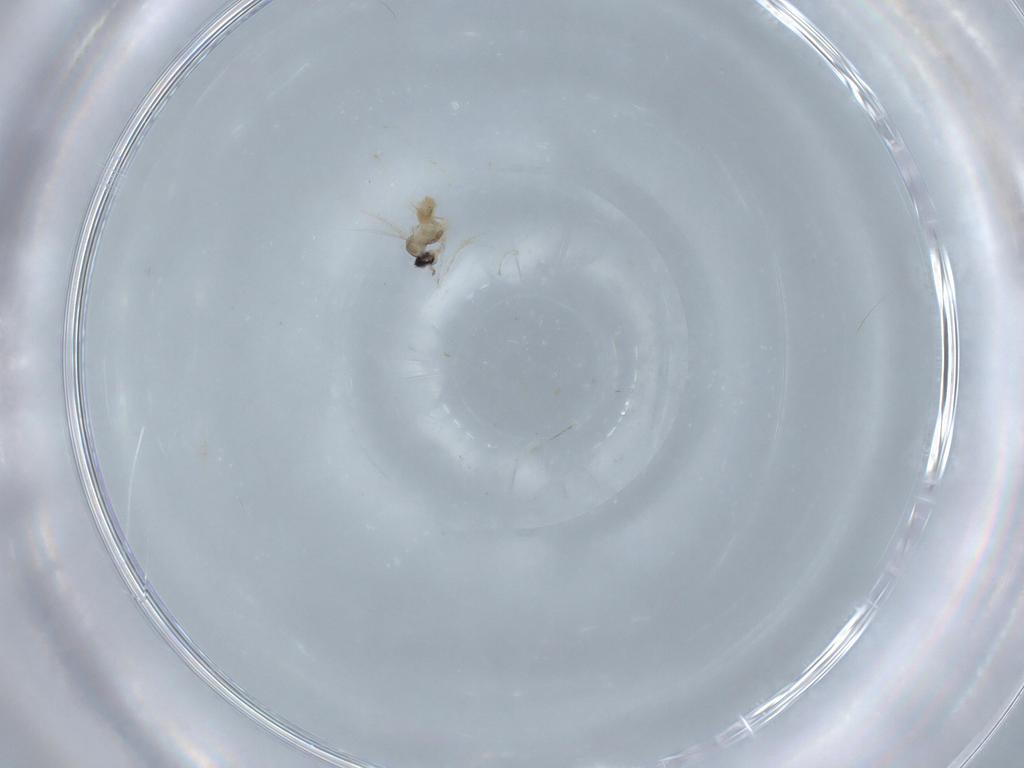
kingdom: Animalia
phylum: Arthropoda
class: Insecta
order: Diptera
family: Cecidomyiidae
